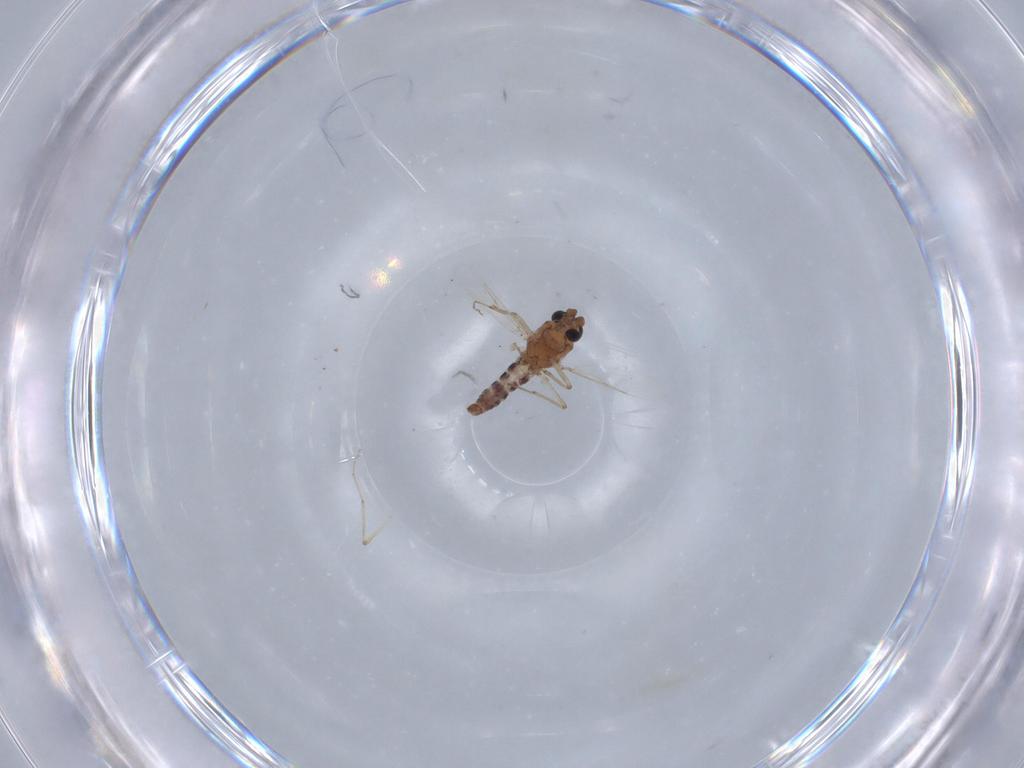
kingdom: Animalia
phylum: Arthropoda
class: Insecta
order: Diptera
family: Ceratopogonidae
